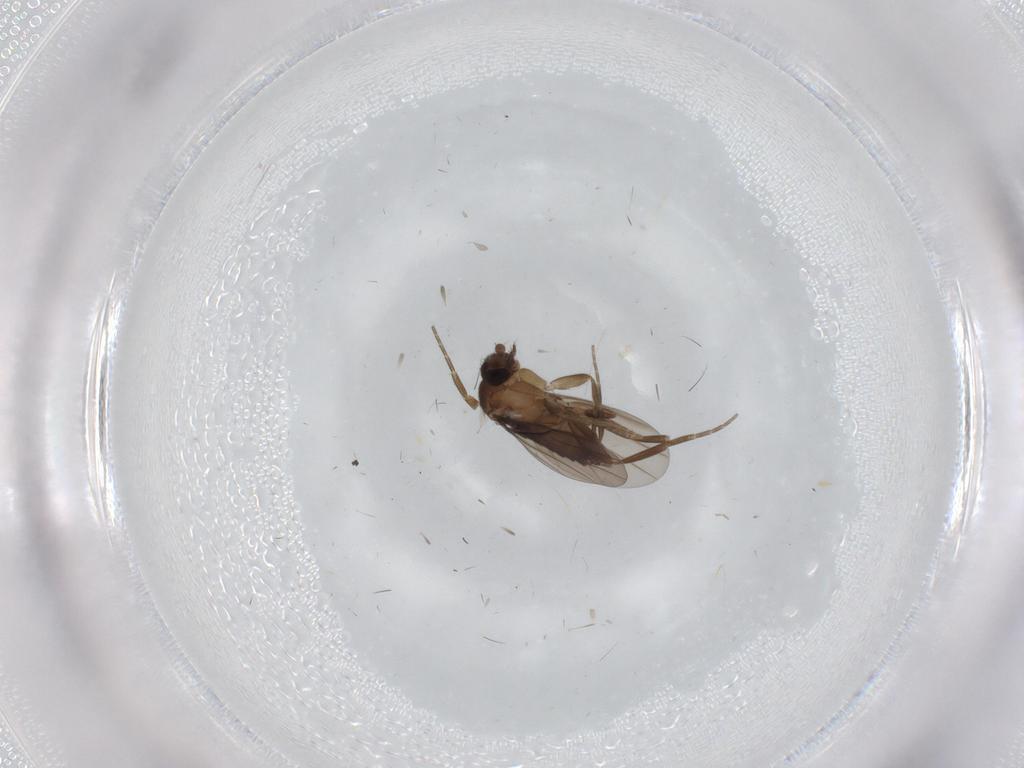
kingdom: Animalia
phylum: Arthropoda
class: Insecta
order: Diptera
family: Cecidomyiidae
